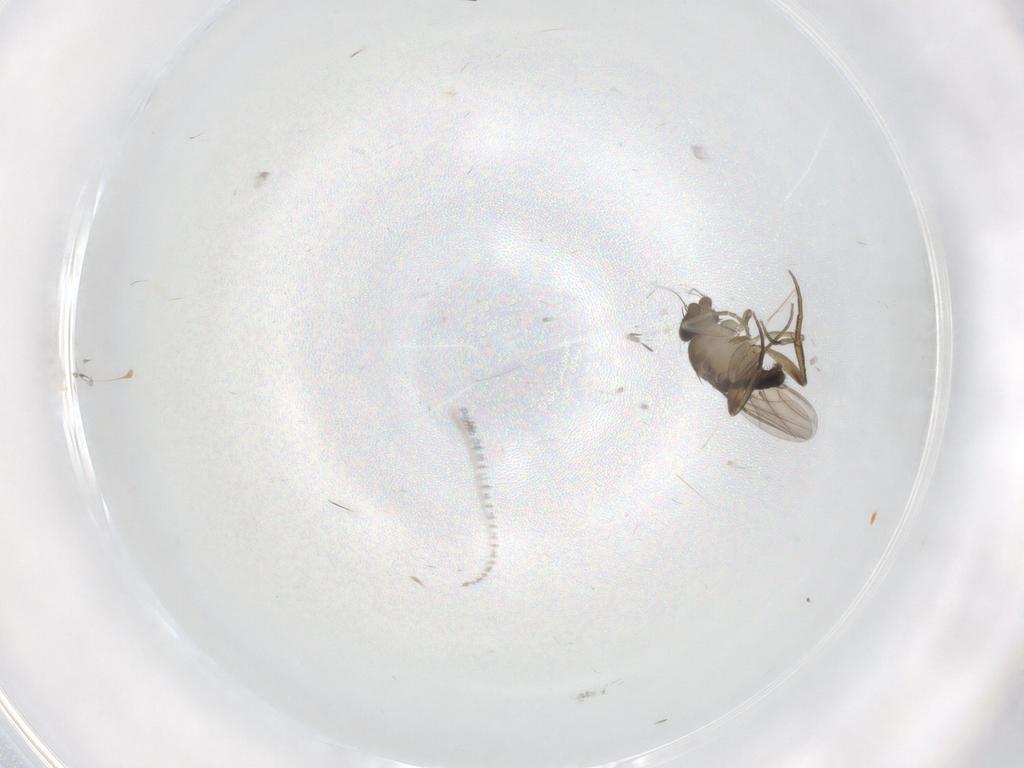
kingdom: Animalia
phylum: Arthropoda
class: Insecta
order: Diptera
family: Phoridae
